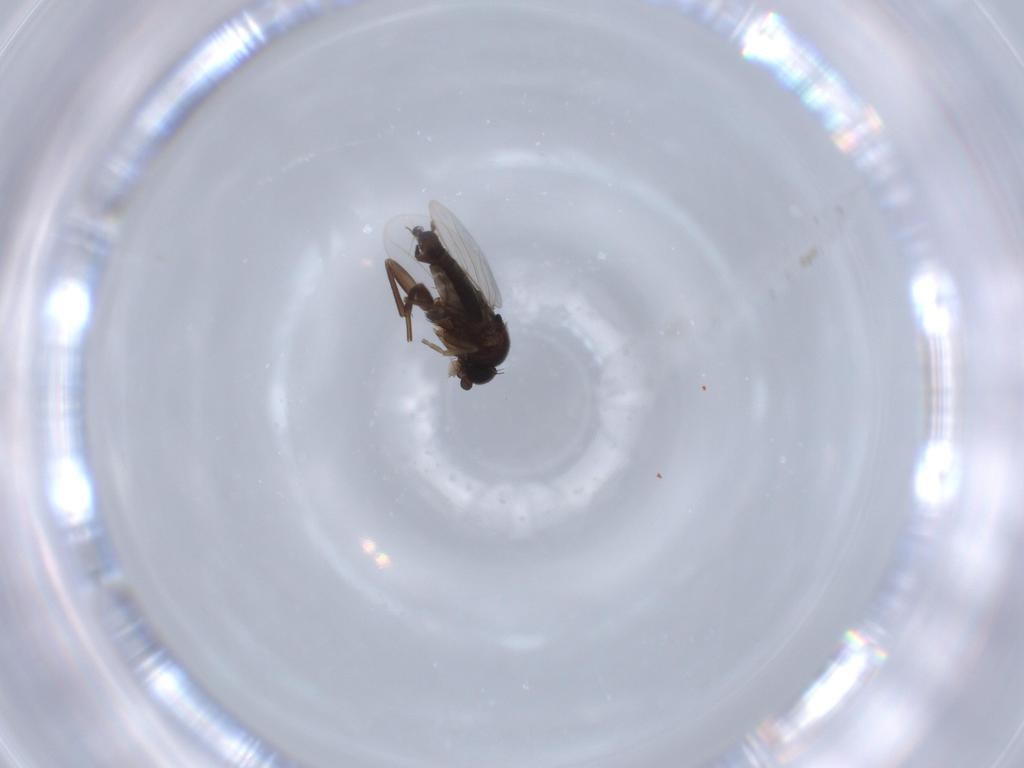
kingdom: Animalia
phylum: Arthropoda
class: Insecta
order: Diptera
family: Phoridae
